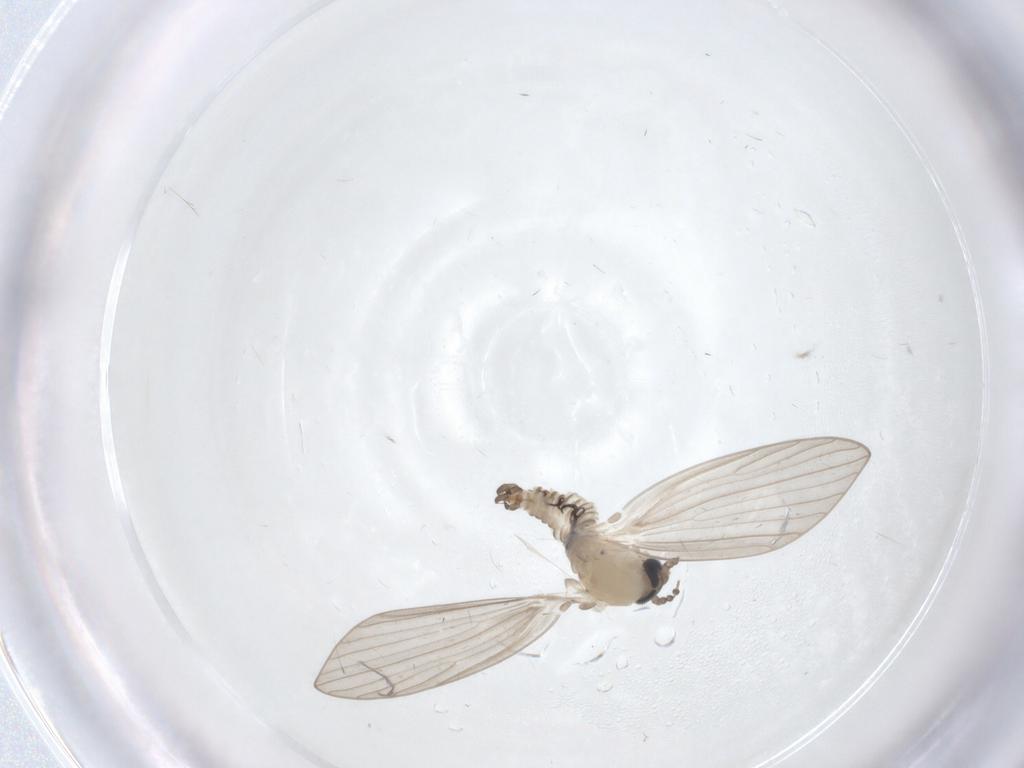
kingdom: Animalia
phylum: Arthropoda
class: Insecta
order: Diptera
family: Psychodidae
